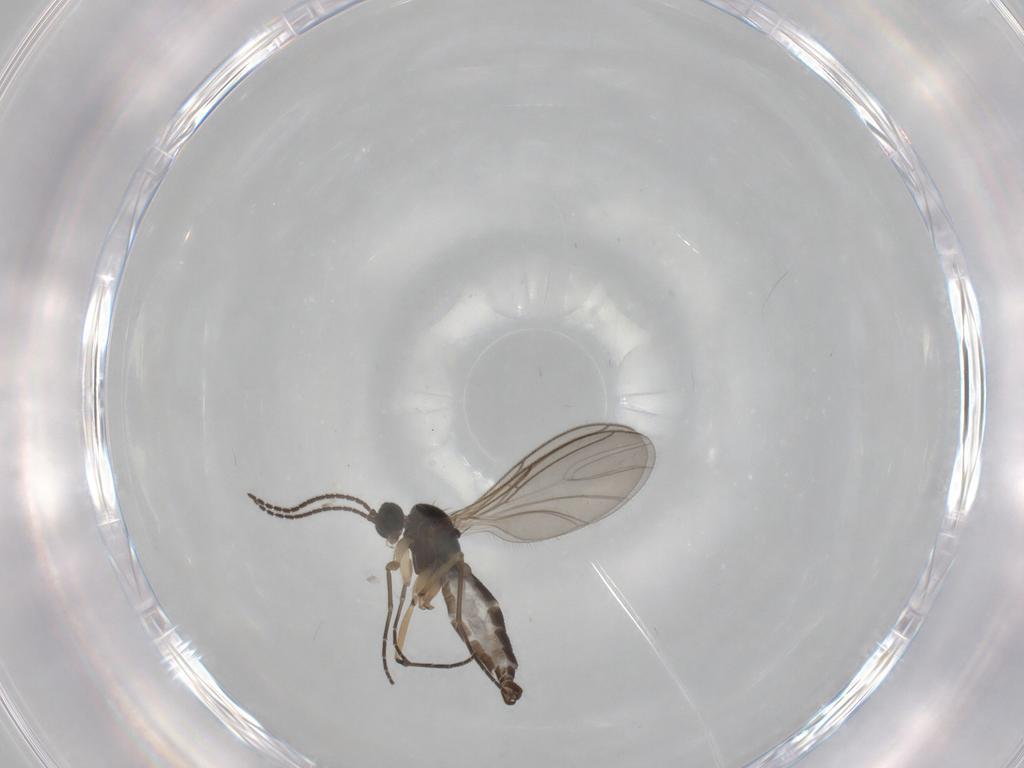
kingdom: Animalia
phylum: Arthropoda
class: Insecta
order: Diptera
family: Sciaridae
